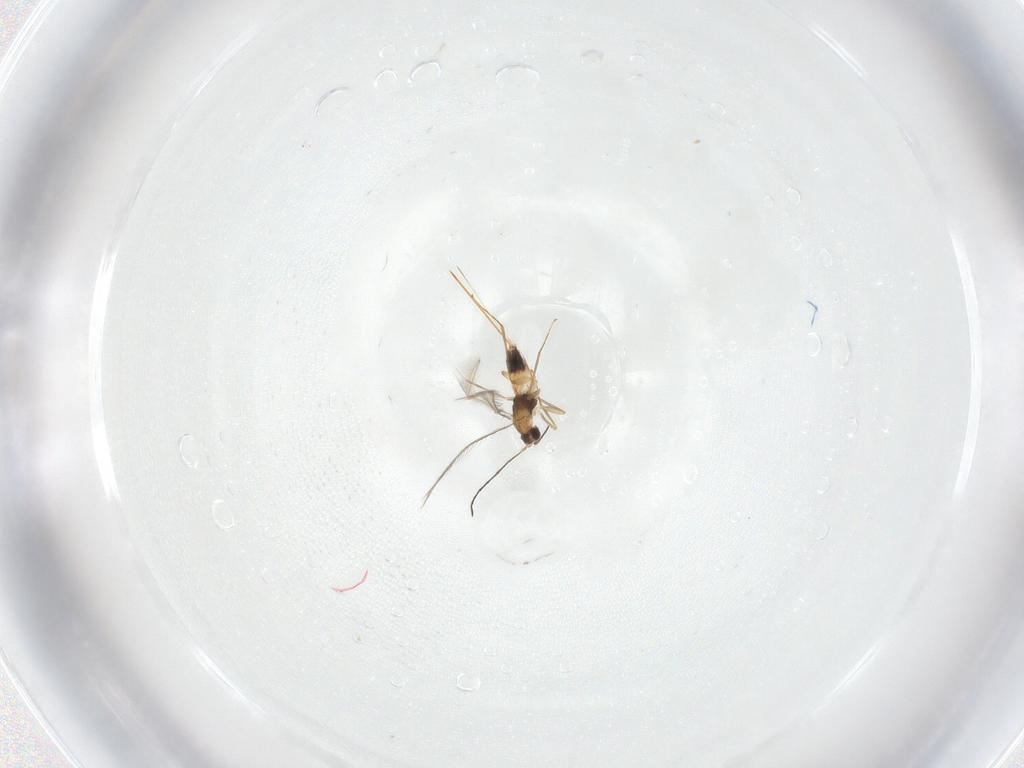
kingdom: Animalia
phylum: Arthropoda
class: Insecta
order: Hymenoptera
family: Mymaridae
